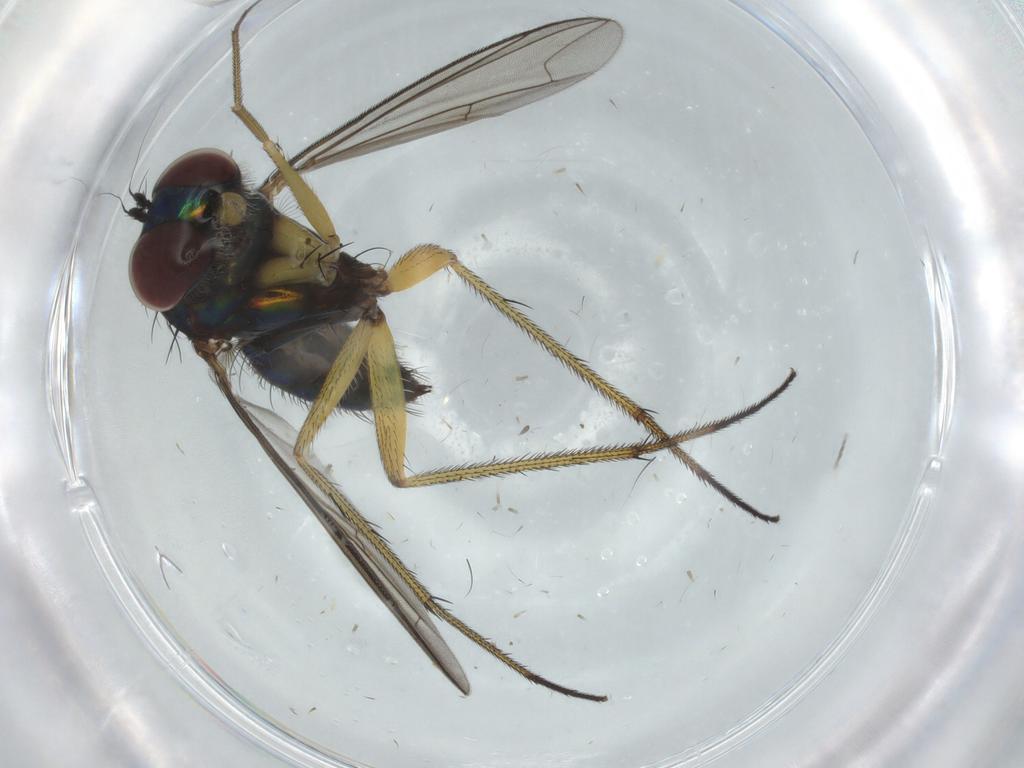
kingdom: Animalia
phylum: Arthropoda
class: Insecta
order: Diptera
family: Dolichopodidae
